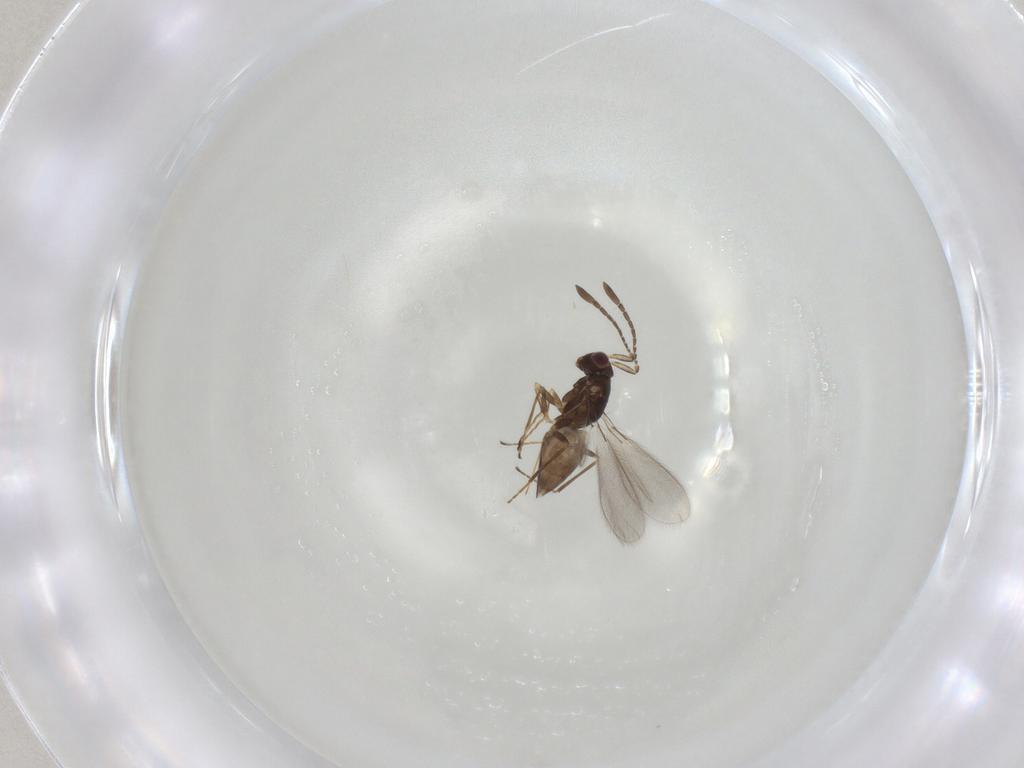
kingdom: Animalia
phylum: Arthropoda
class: Insecta
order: Hymenoptera
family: Mymaridae
